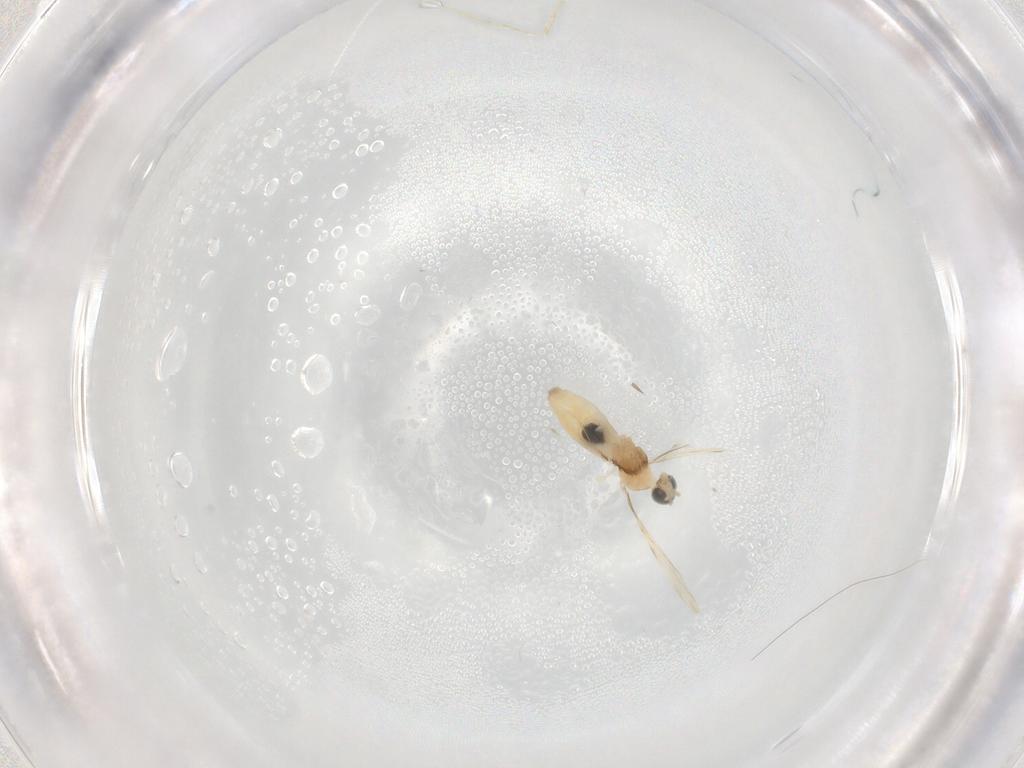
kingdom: Animalia
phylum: Arthropoda
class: Insecta
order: Diptera
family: Cecidomyiidae
